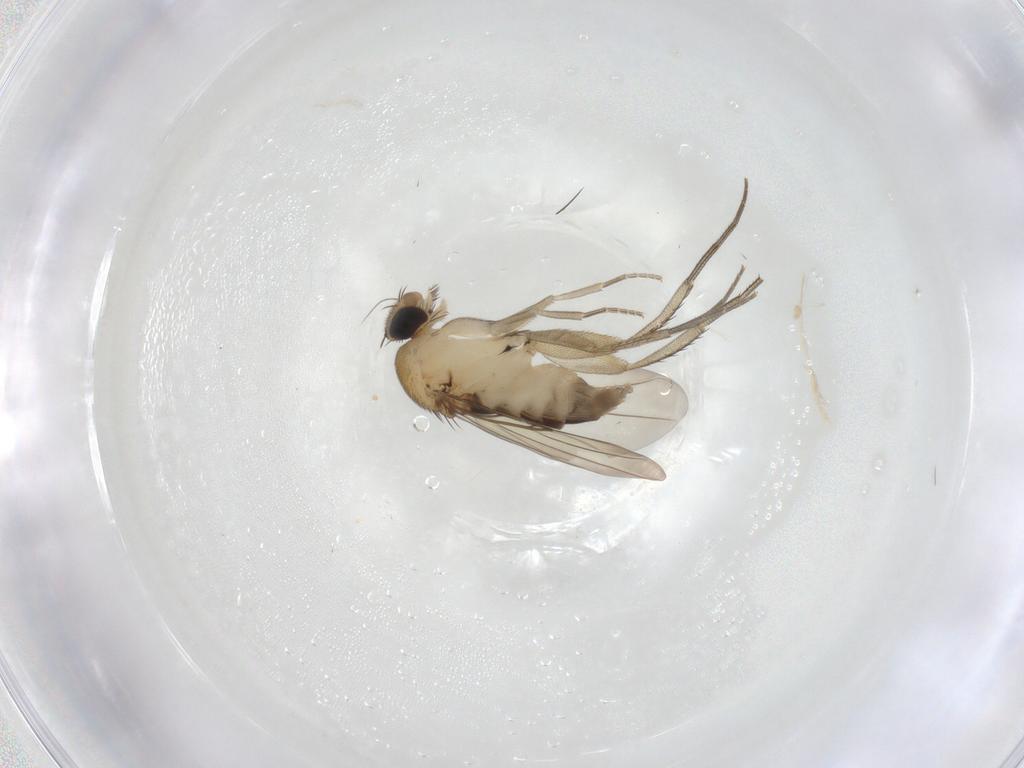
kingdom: Animalia
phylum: Arthropoda
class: Insecta
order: Diptera
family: Phoridae
